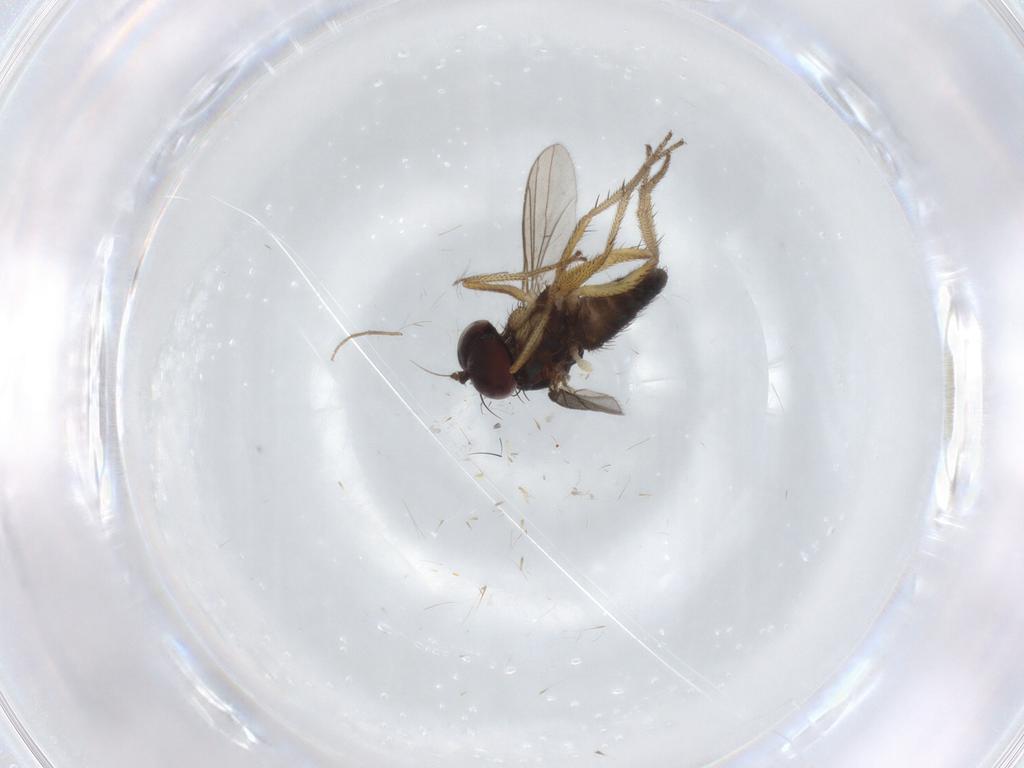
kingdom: Animalia
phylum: Arthropoda
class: Insecta
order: Diptera
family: Chironomidae
